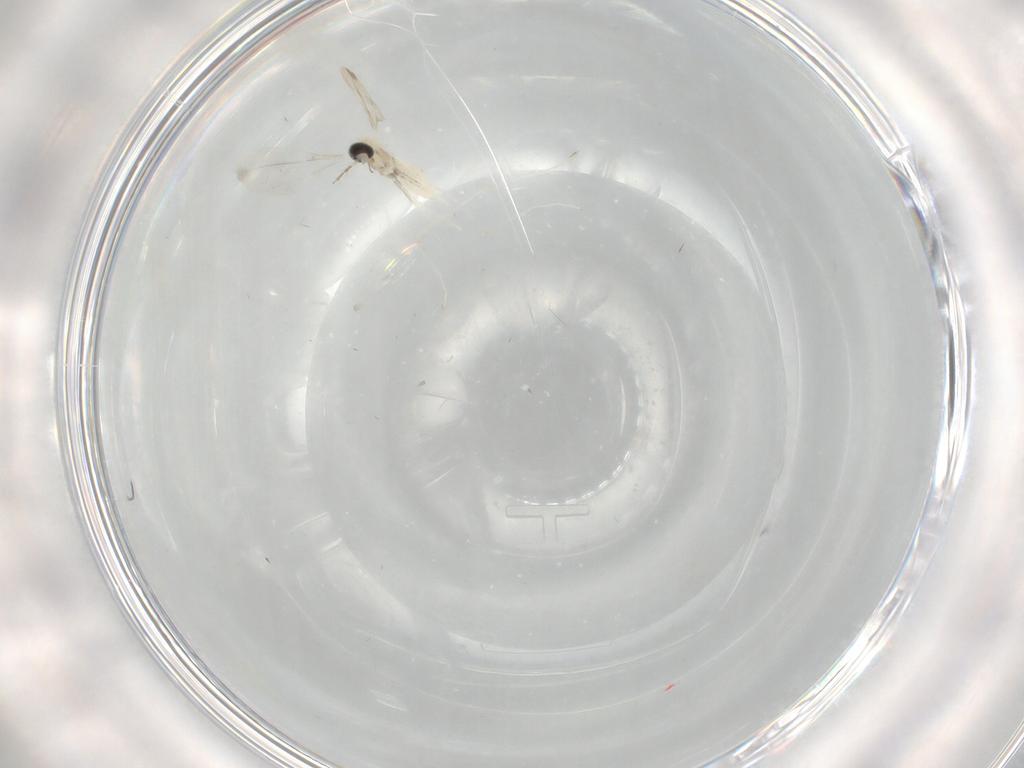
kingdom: Animalia
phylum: Arthropoda
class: Insecta
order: Diptera
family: Cecidomyiidae
